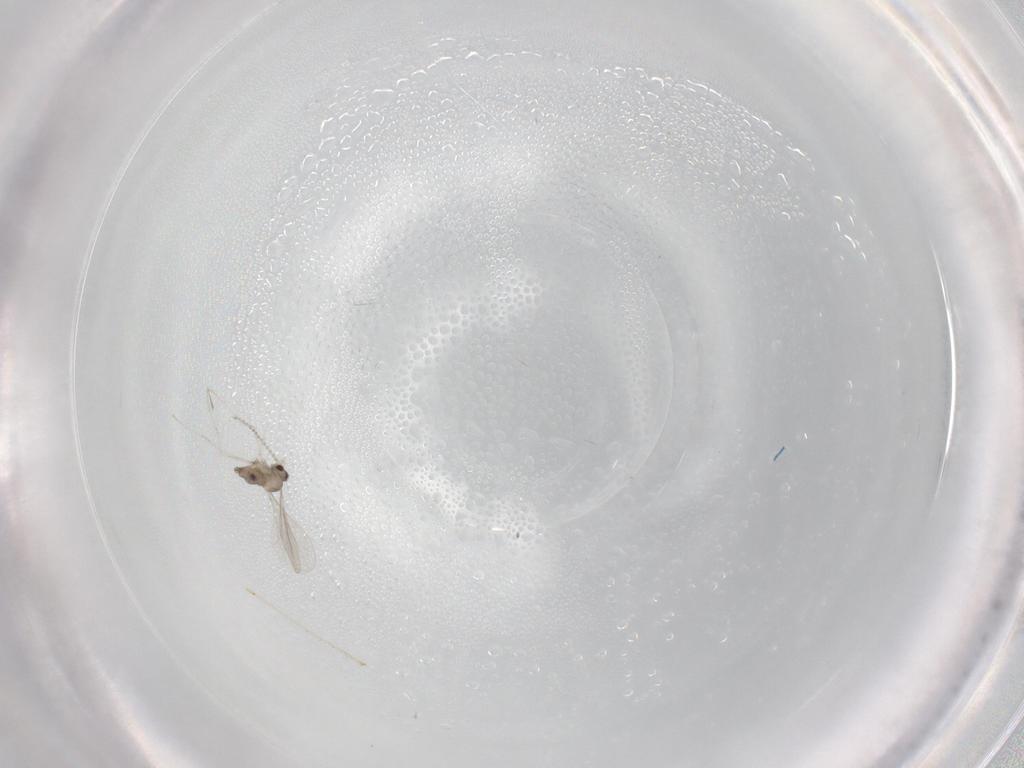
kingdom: Animalia
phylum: Arthropoda
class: Insecta
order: Diptera
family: Cecidomyiidae
